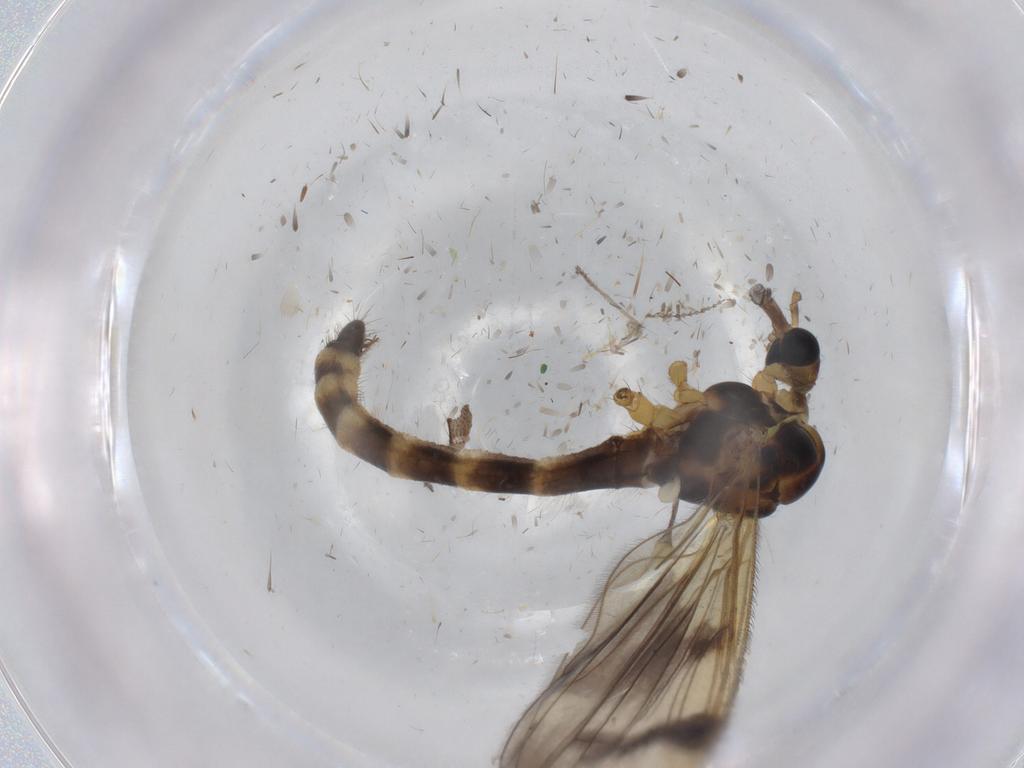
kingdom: Animalia
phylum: Arthropoda
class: Insecta
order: Diptera
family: Limoniidae
